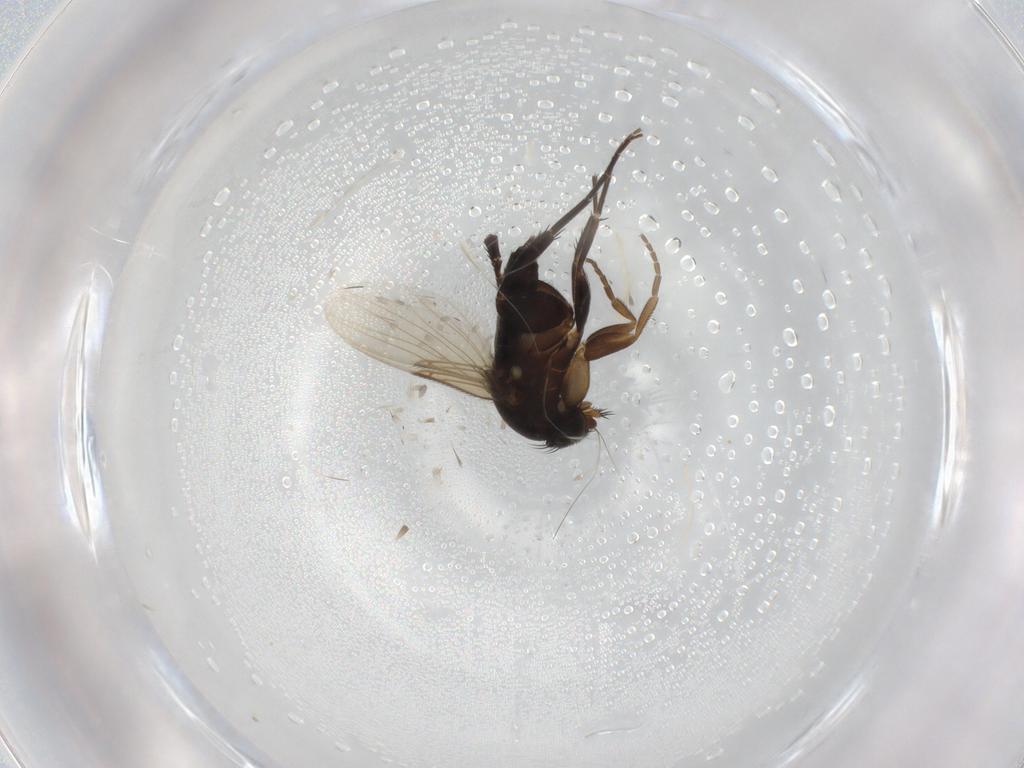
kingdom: Animalia
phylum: Arthropoda
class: Insecta
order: Diptera
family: Phoridae
